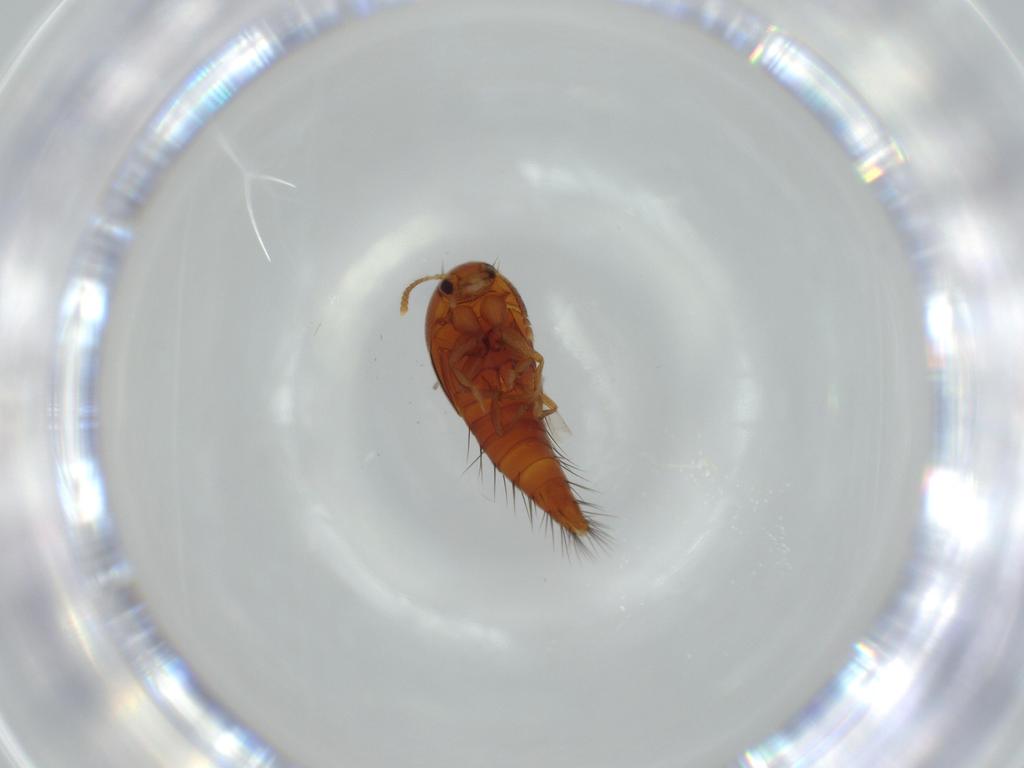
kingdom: Animalia
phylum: Arthropoda
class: Insecta
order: Coleoptera
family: Staphylinidae
